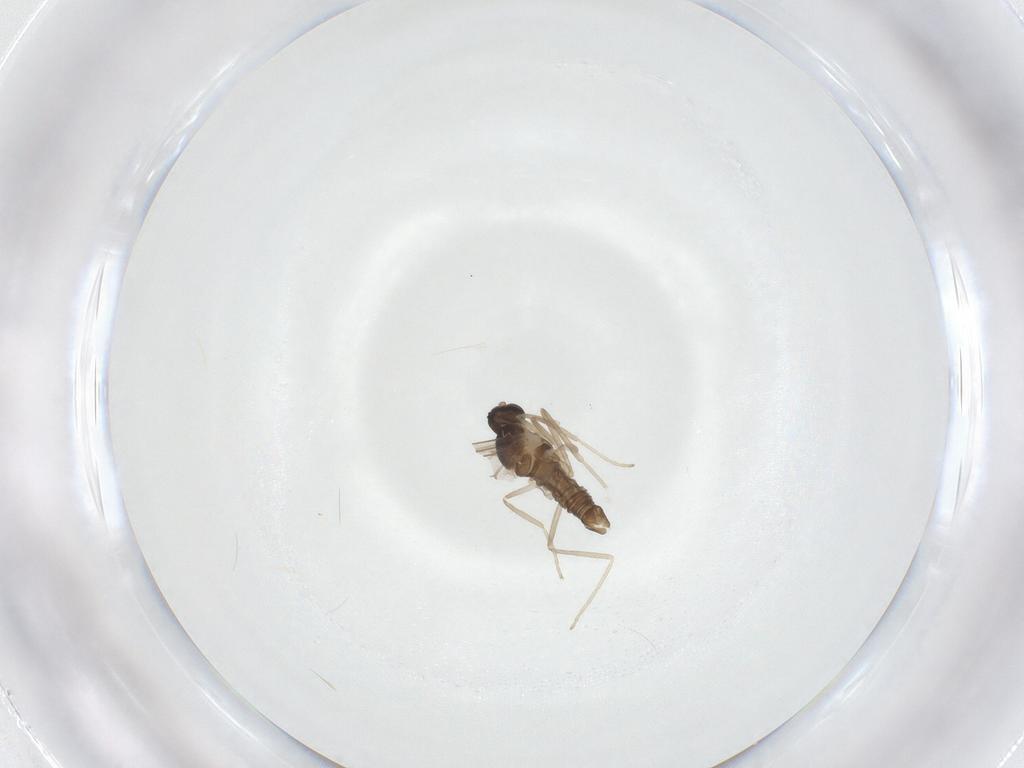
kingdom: Animalia
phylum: Arthropoda
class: Insecta
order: Diptera
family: Cecidomyiidae
